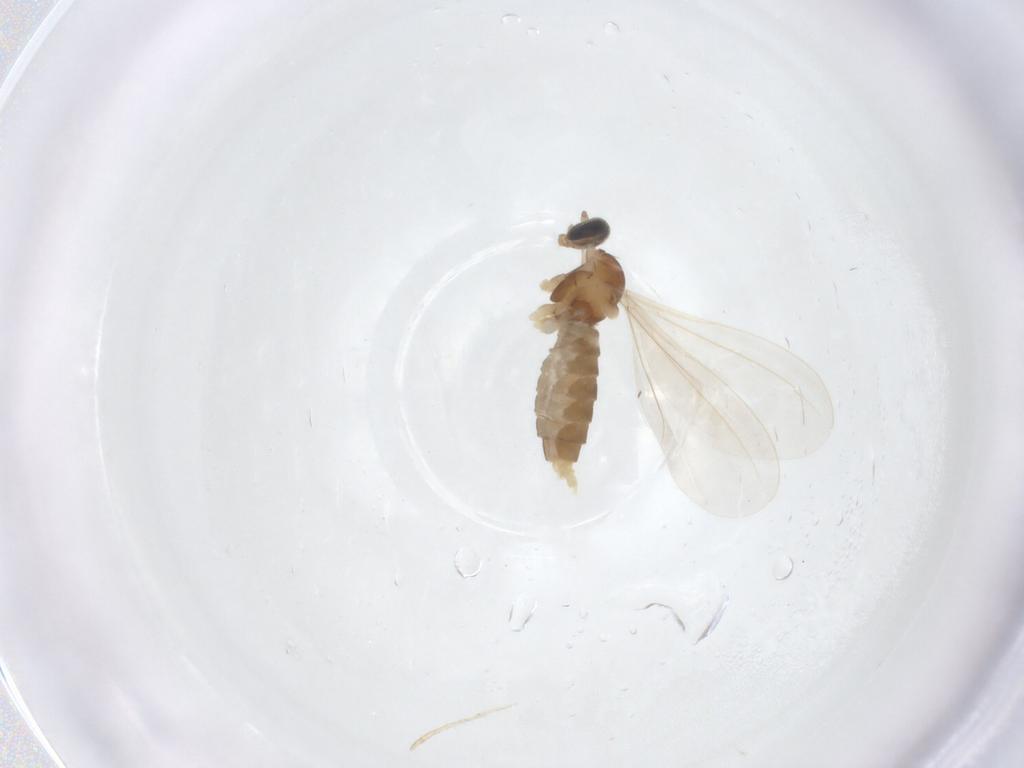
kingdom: Animalia
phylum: Arthropoda
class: Insecta
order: Diptera
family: Cecidomyiidae
